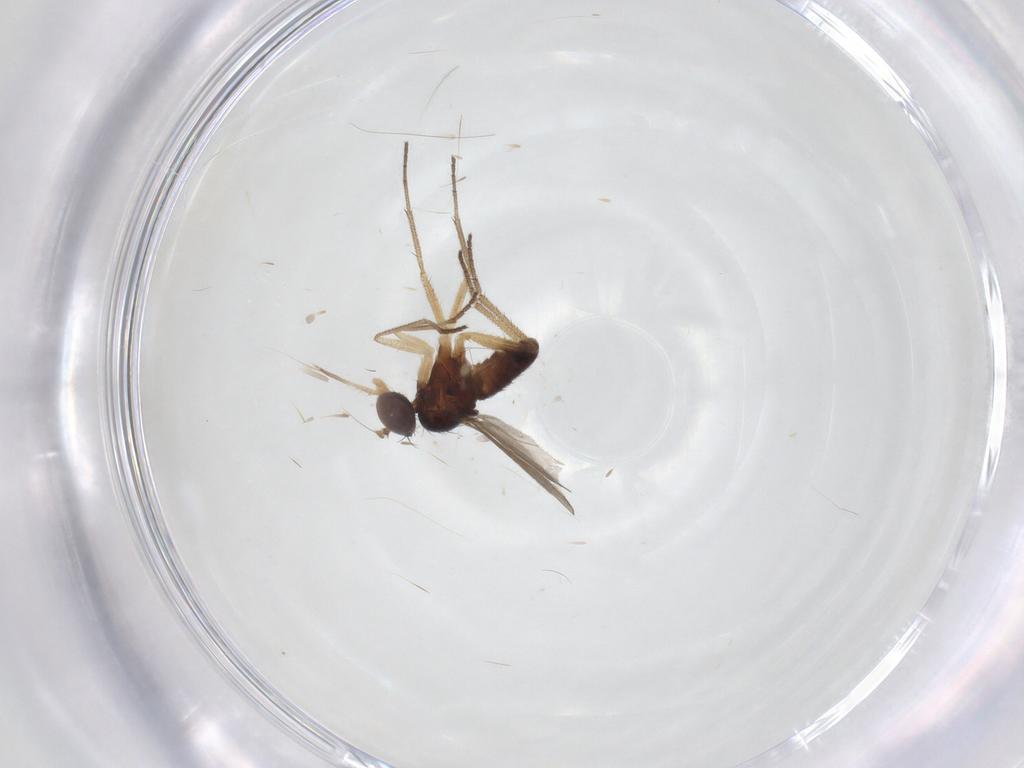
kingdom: Animalia
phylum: Arthropoda
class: Insecta
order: Diptera
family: Dolichopodidae
